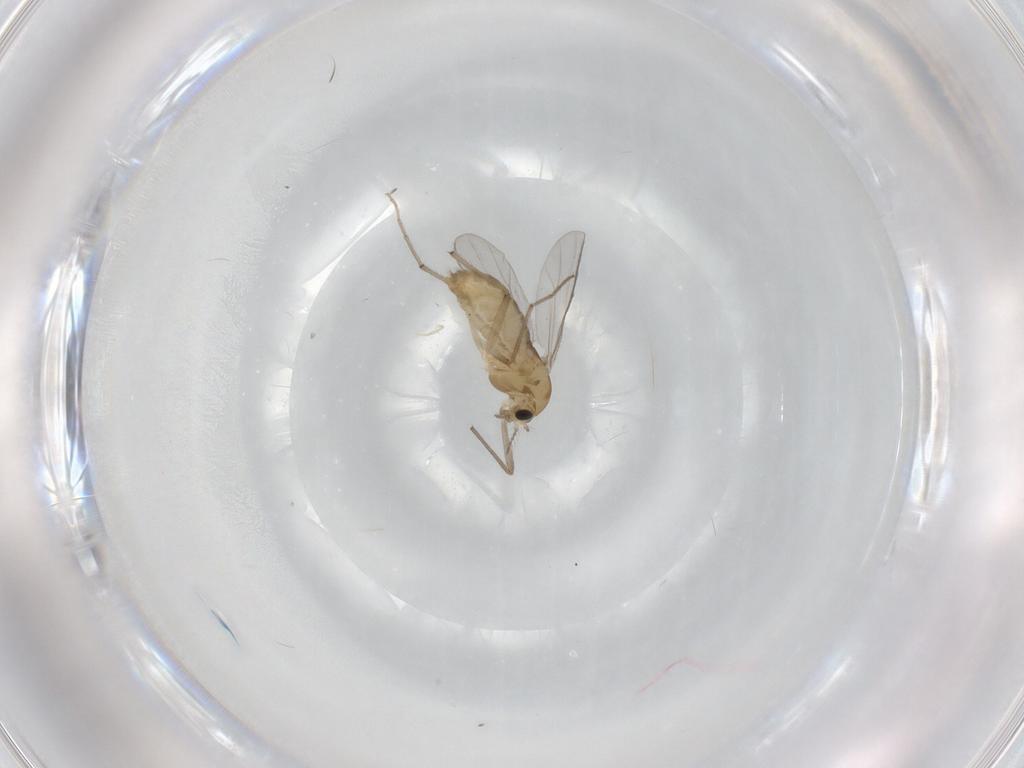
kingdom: Animalia
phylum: Arthropoda
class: Insecta
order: Diptera
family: Chironomidae
